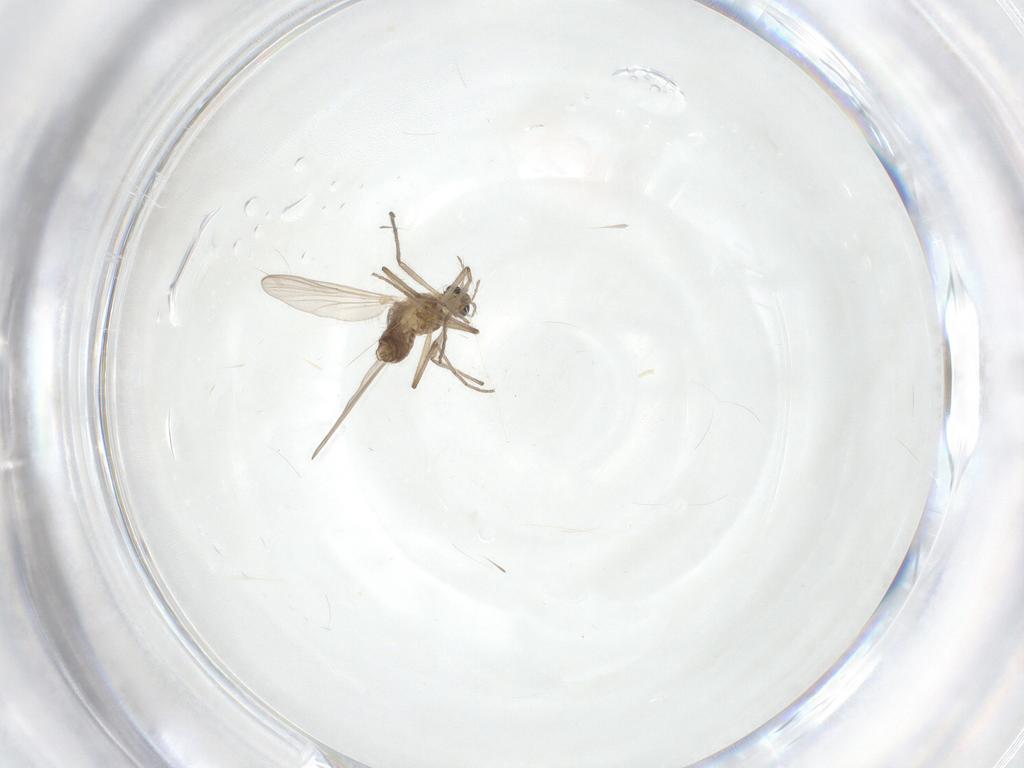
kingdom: Animalia
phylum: Arthropoda
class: Insecta
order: Diptera
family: Chironomidae
